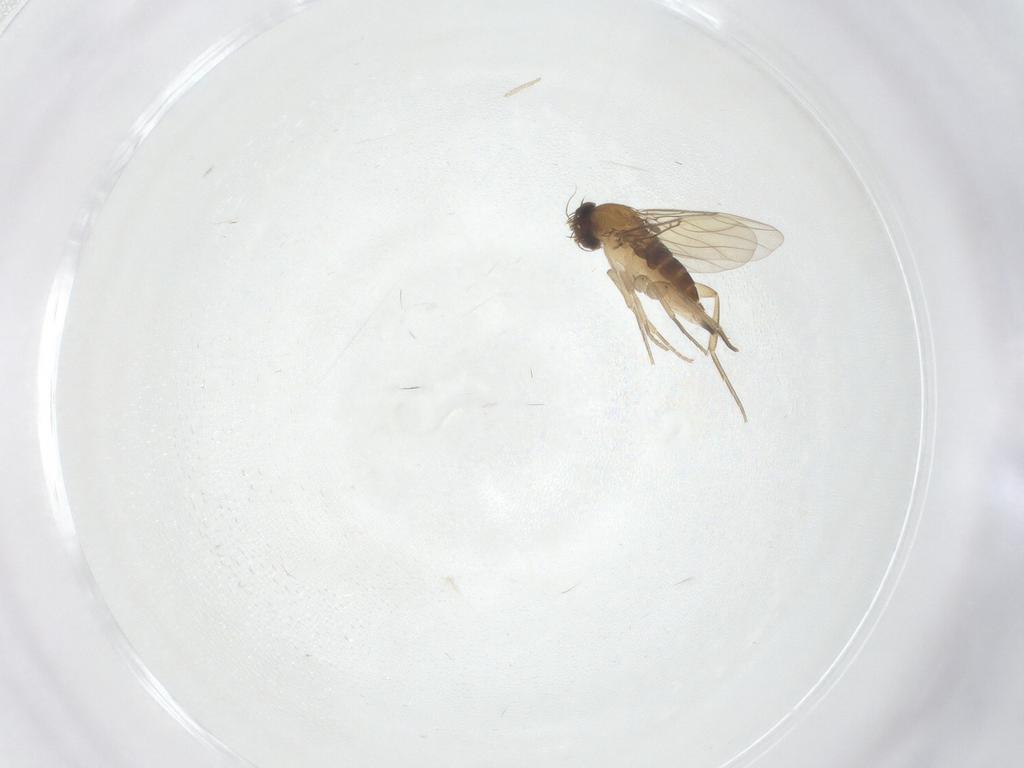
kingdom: Animalia
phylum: Arthropoda
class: Insecta
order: Diptera
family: Phoridae
